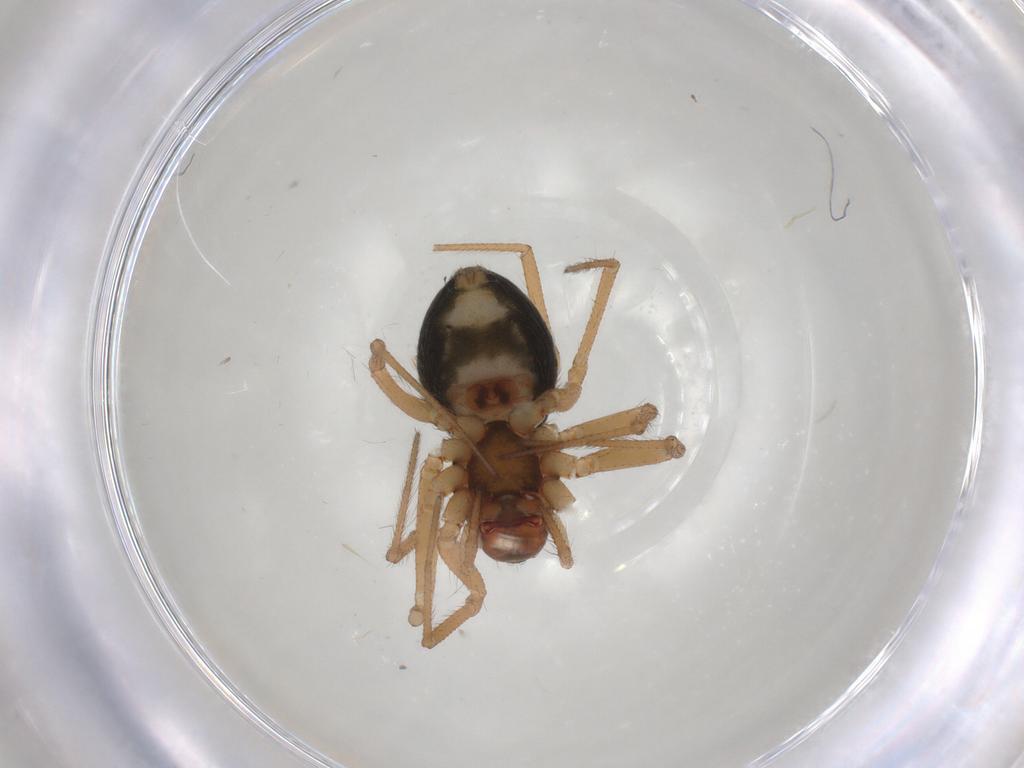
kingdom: Animalia
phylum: Arthropoda
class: Arachnida
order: Araneae
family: Linyphiidae
